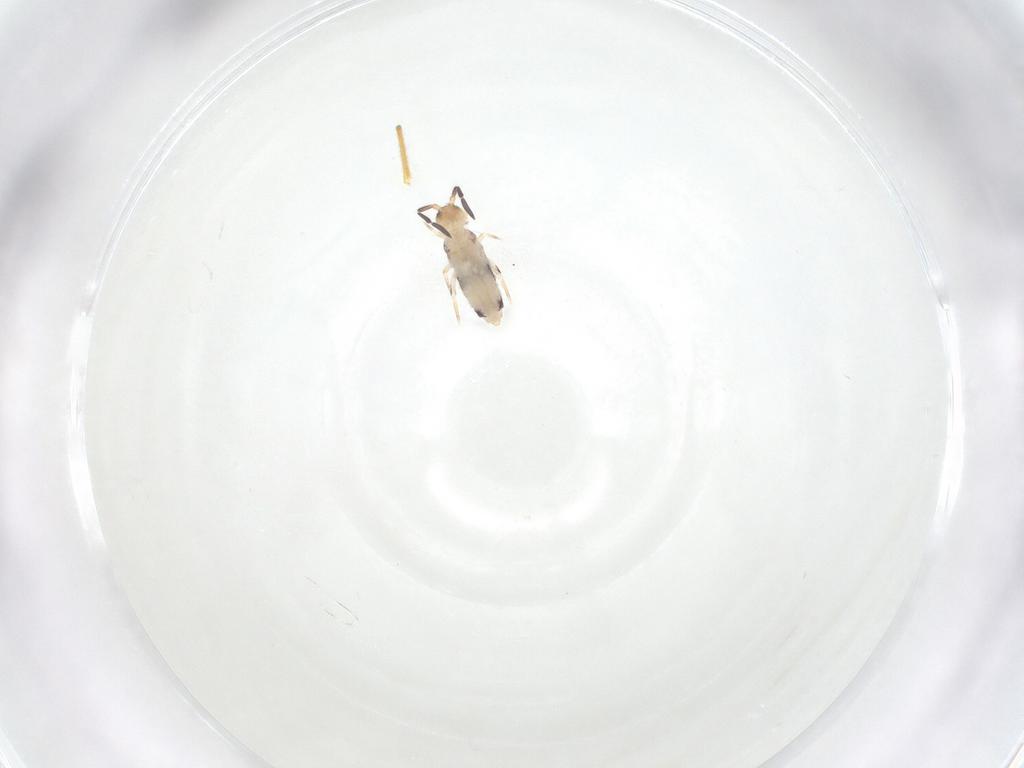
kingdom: Animalia
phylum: Arthropoda
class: Collembola
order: Entomobryomorpha
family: Entomobryidae
